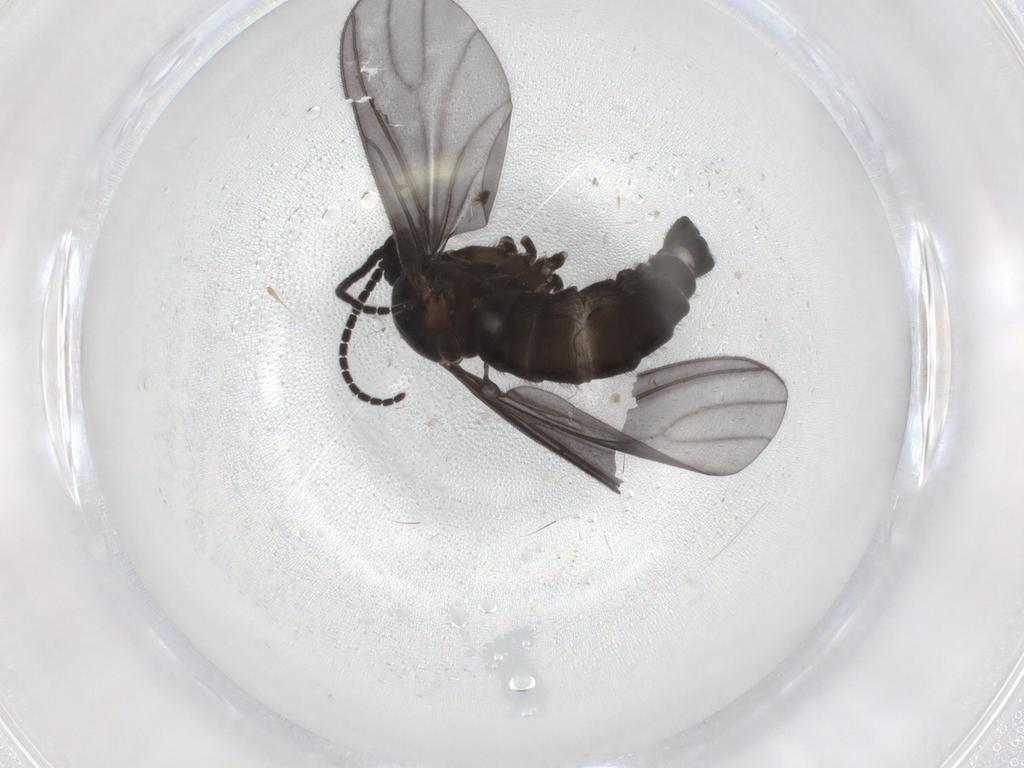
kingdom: Animalia
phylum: Arthropoda
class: Insecta
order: Diptera
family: Sciaridae
